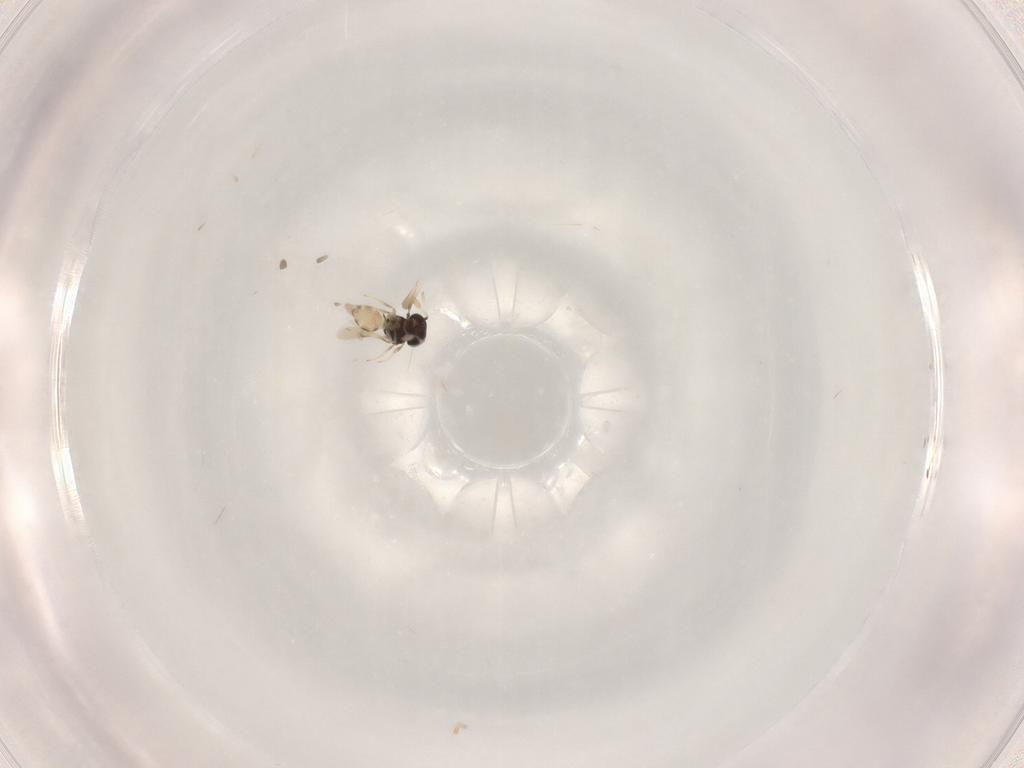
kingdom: Animalia
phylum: Arthropoda
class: Insecta
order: Hymenoptera
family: Scelionidae
